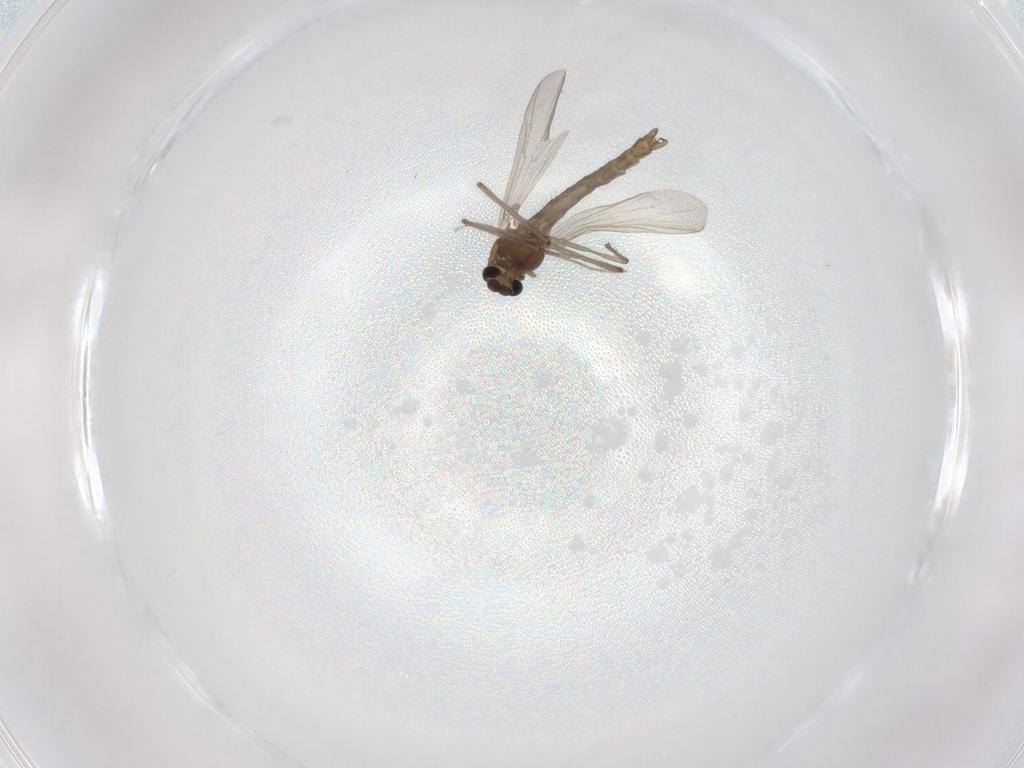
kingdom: Animalia
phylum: Arthropoda
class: Insecta
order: Diptera
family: Chironomidae
